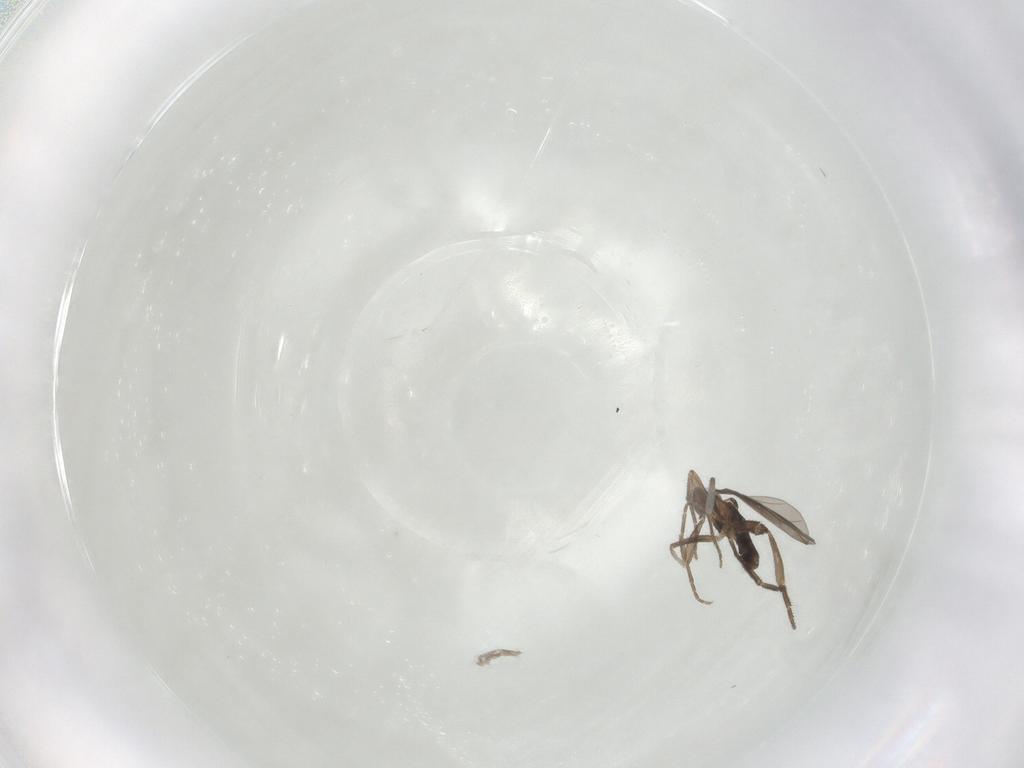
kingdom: Animalia
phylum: Arthropoda
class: Insecta
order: Diptera
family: Phoridae
